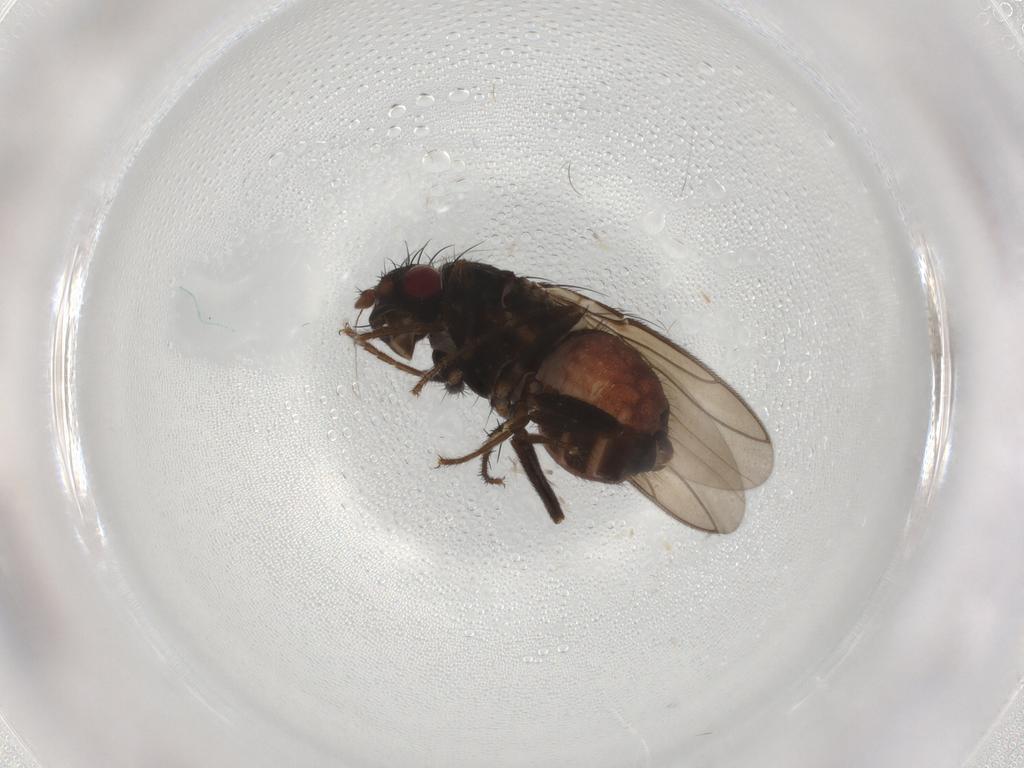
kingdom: Animalia
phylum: Arthropoda
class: Insecta
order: Diptera
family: Sphaeroceridae
